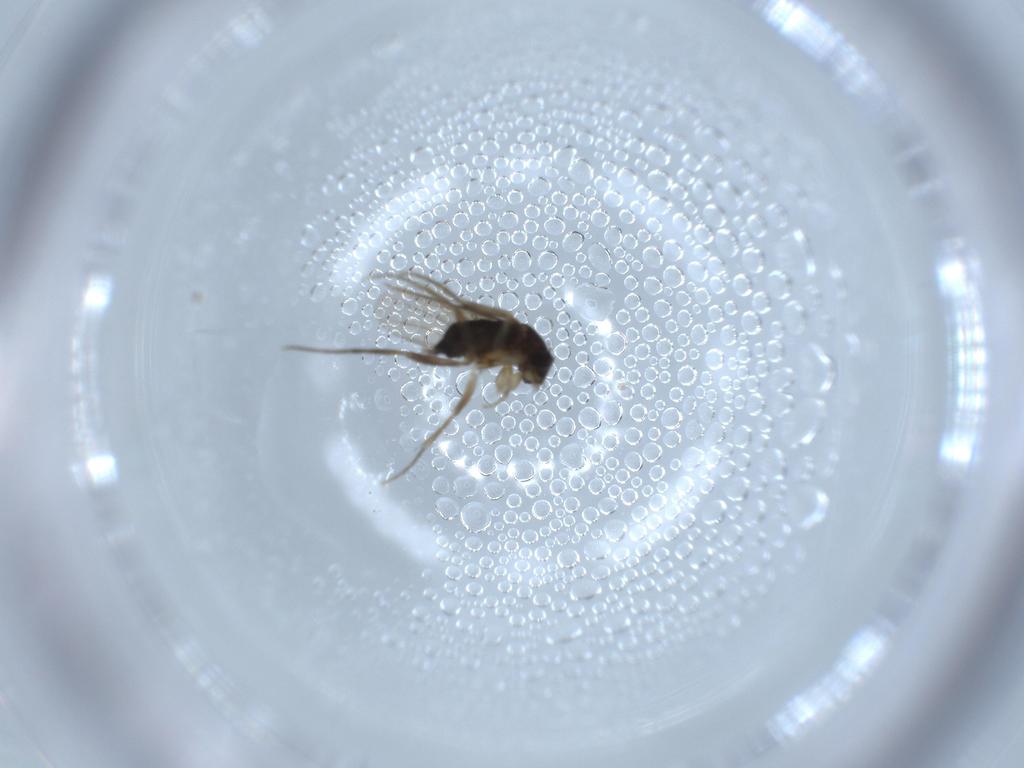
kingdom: Animalia
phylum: Arthropoda
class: Insecta
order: Diptera
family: Phoridae
